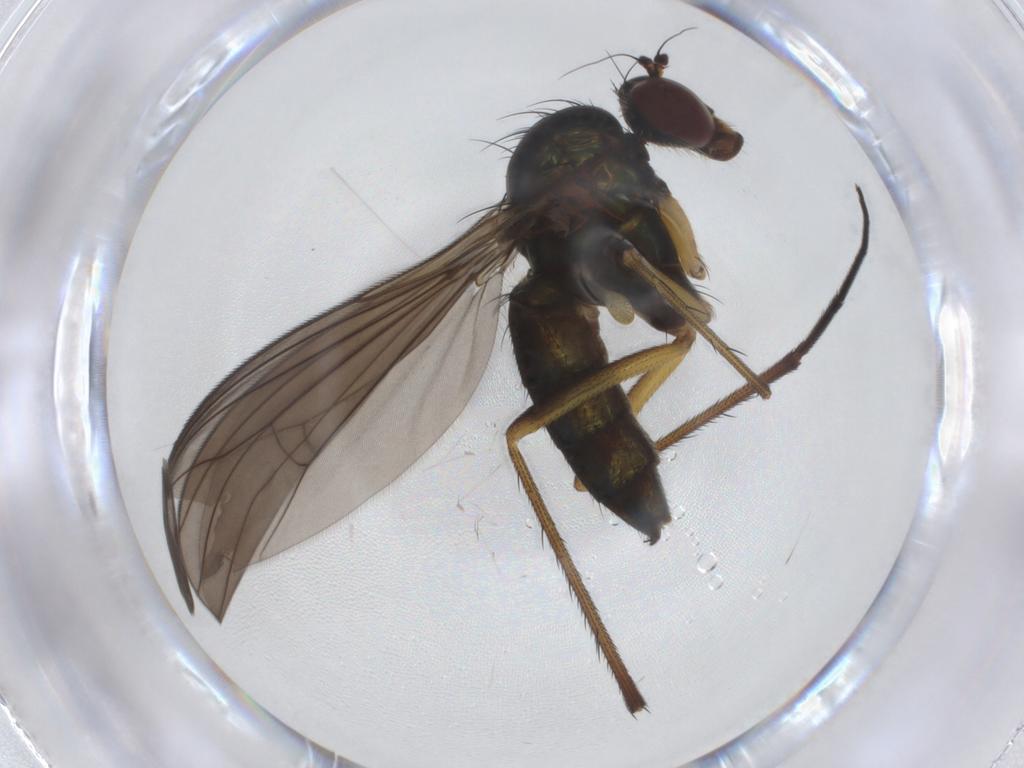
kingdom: Animalia
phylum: Arthropoda
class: Insecta
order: Diptera
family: Dolichopodidae
